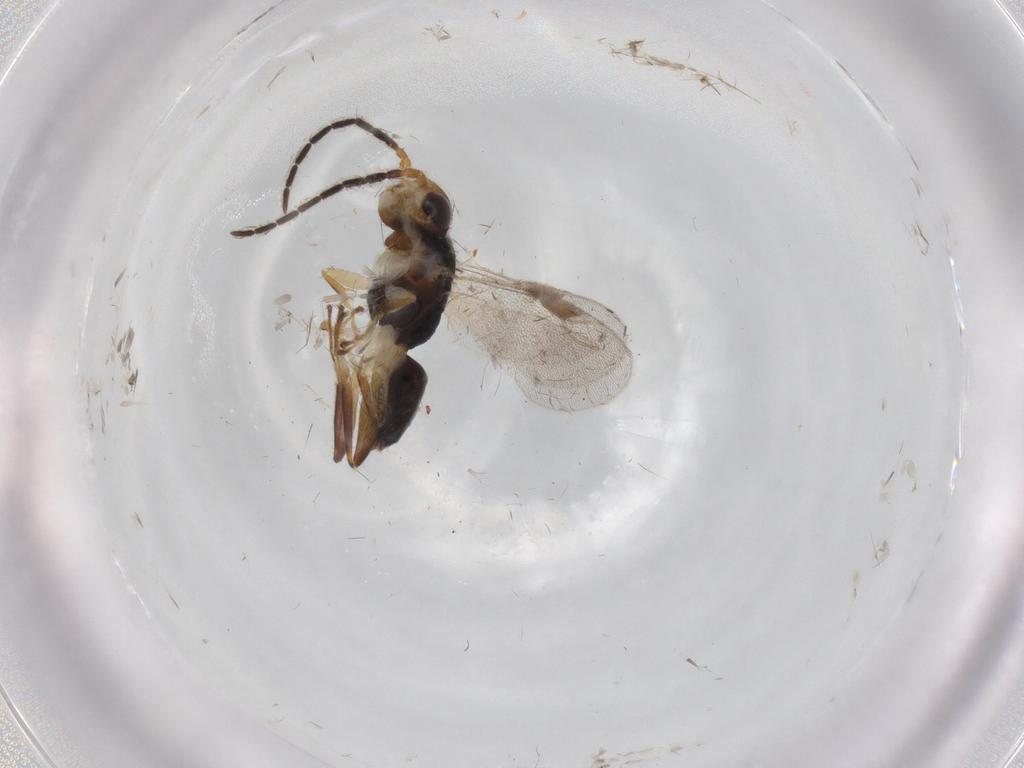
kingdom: Animalia
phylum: Arthropoda
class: Insecta
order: Hymenoptera
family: Dryinidae
